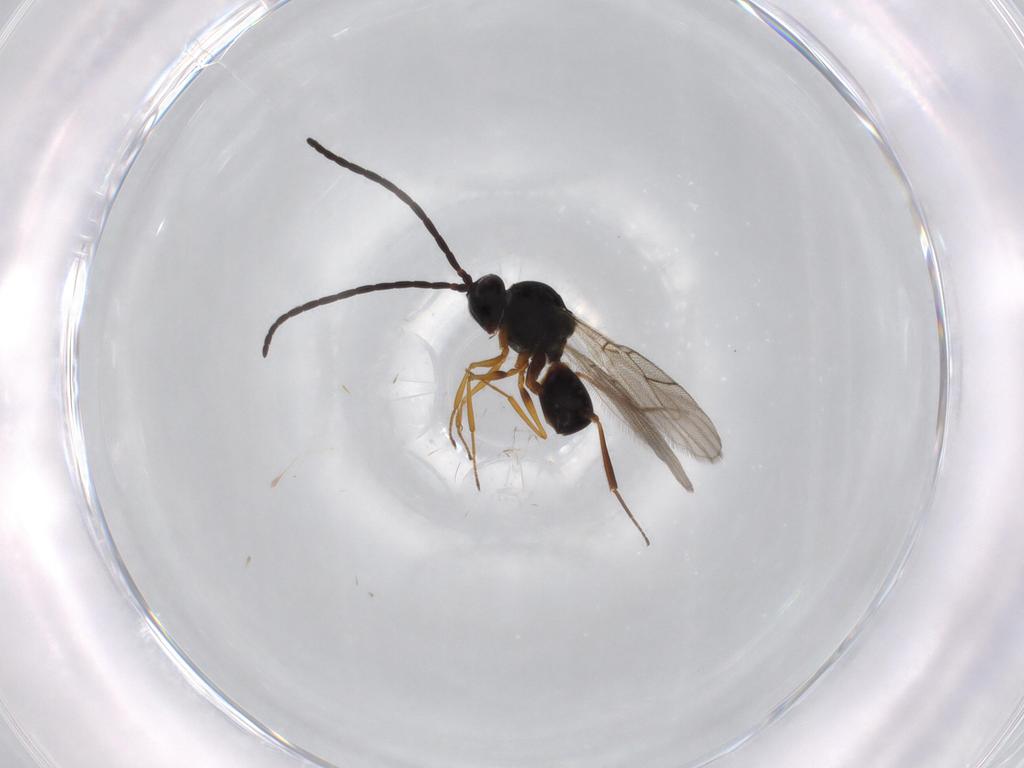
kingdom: Animalia
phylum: Arthropoda
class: Insecta
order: Hymenoptera
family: Figitidae
